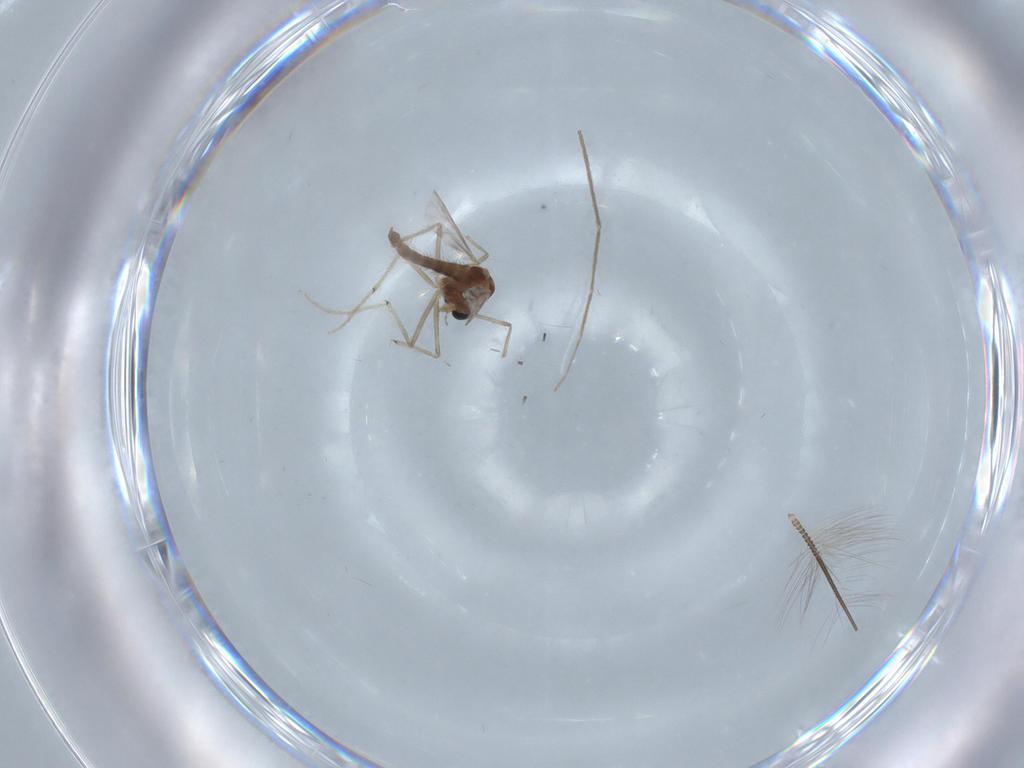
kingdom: Animalia
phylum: Arthropoda
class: Insecta
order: Diptera
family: Chironomidae
